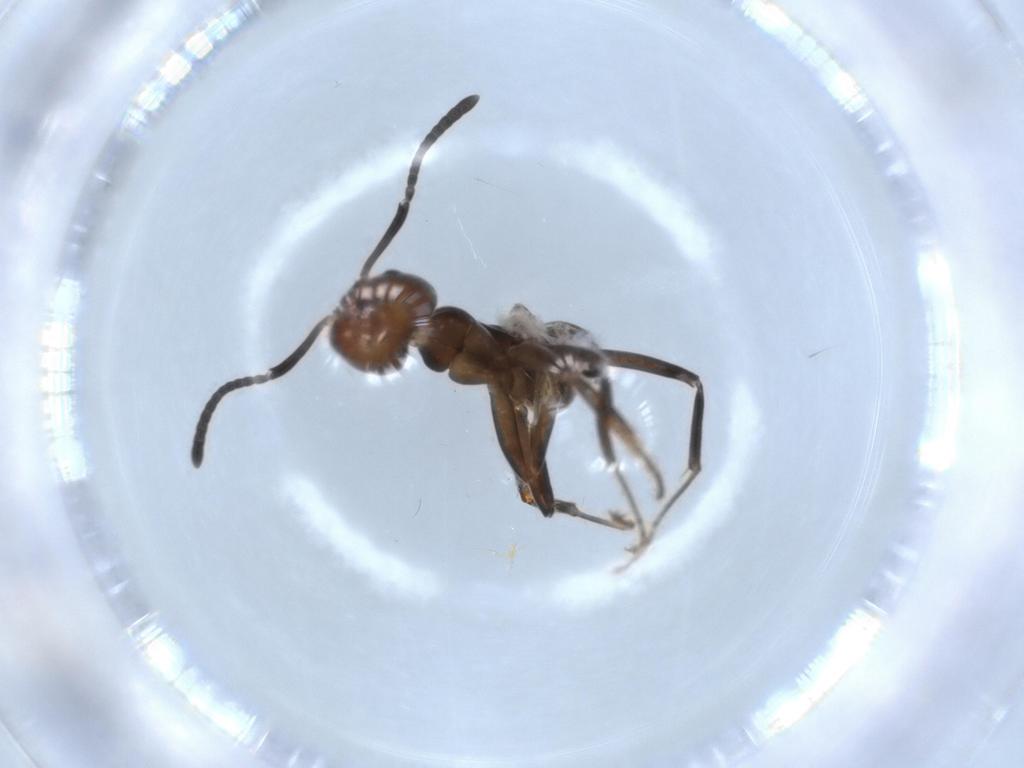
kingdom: Animalia
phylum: Arthropoda
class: Insecta
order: Hymenoptera
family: Formicidae
